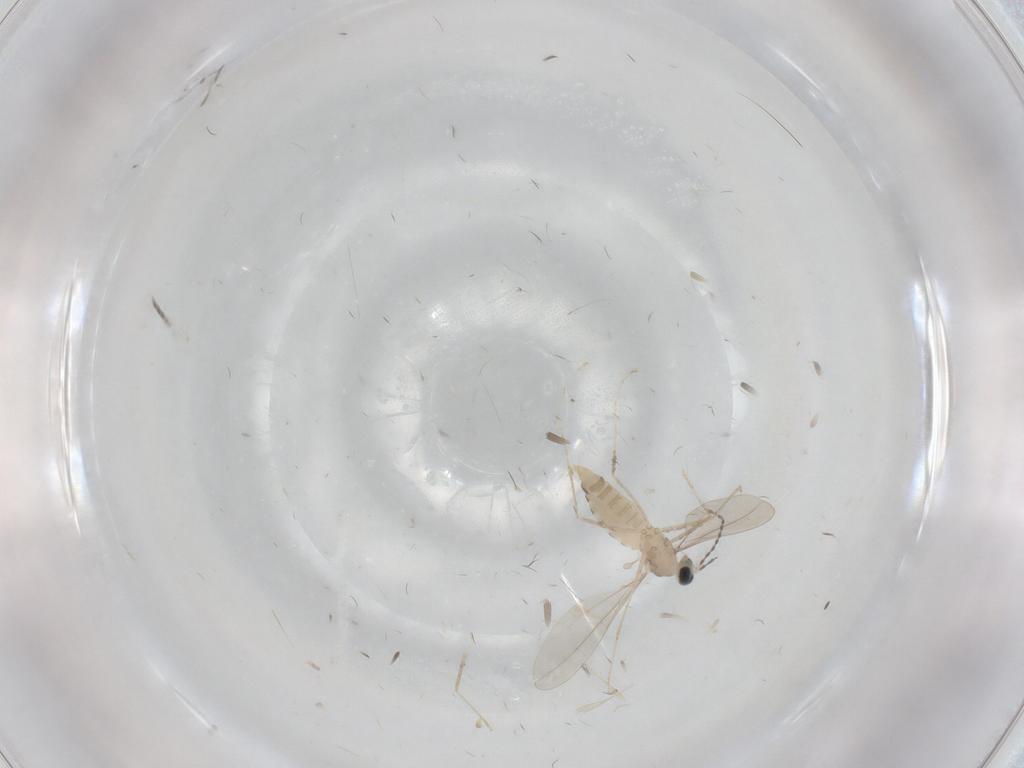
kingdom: Animalia
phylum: Arthropoda
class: Insecta
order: Diptera
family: Cecidomyiidae
